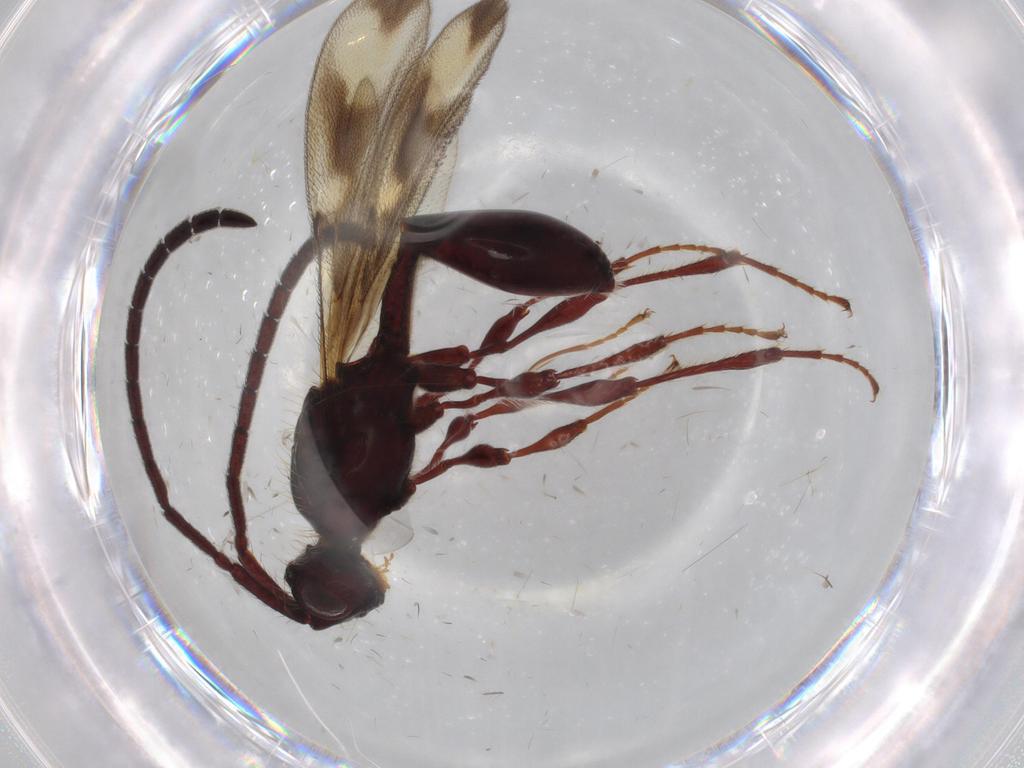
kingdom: Animalia
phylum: Arthropoda
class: Insecta
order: Hymenoptera
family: Diapriidae
